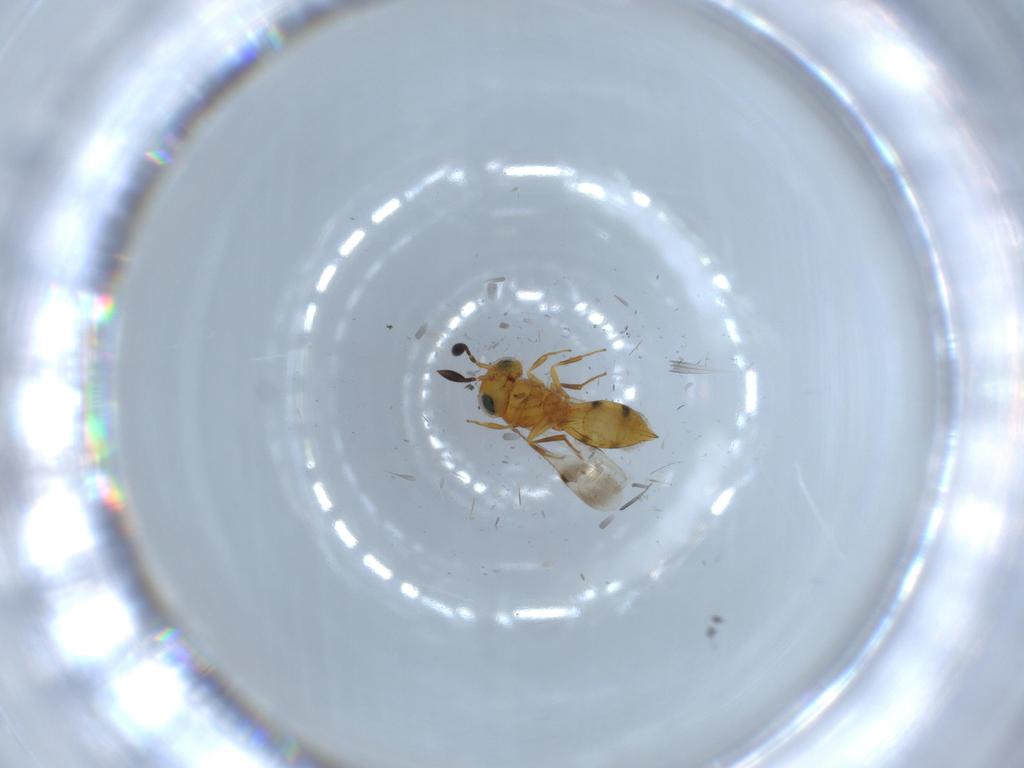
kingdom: Animalia
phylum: Arthropoda
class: Insecta
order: Hymenoptera
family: Scelionidae
